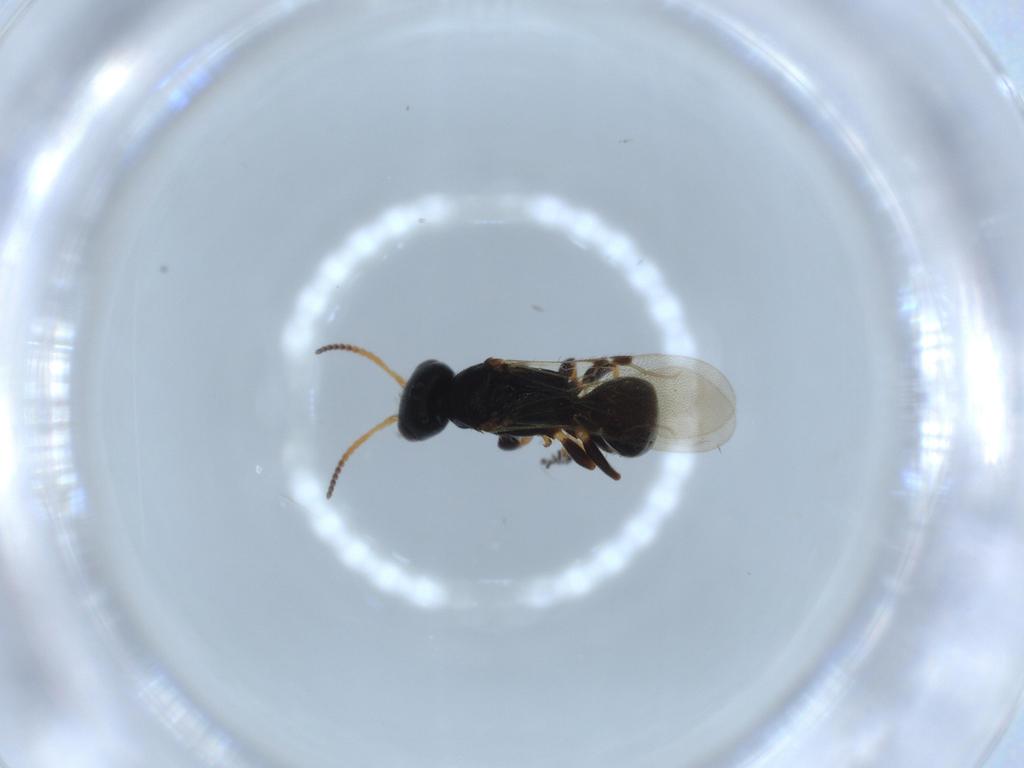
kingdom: Animalia
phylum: Arthropoda
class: Insecta
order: Hymenoptera
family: Bethylidae
